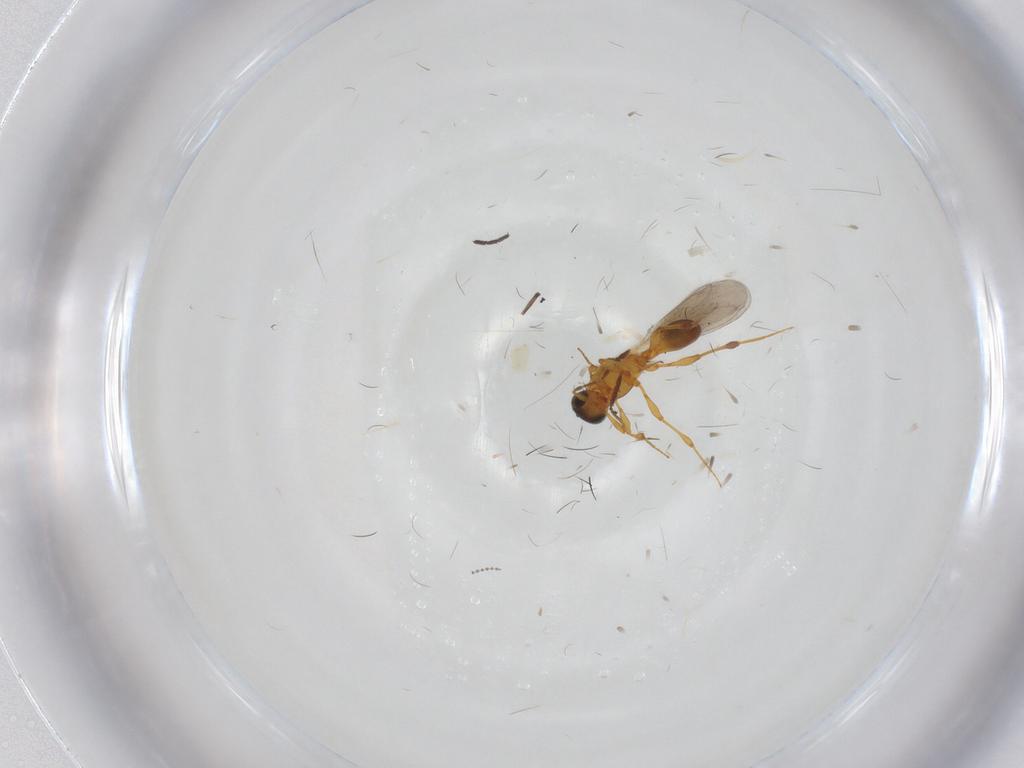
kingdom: Animalia
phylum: Arthropoda
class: Insecta
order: Hymenoptera
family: Platygastridae
